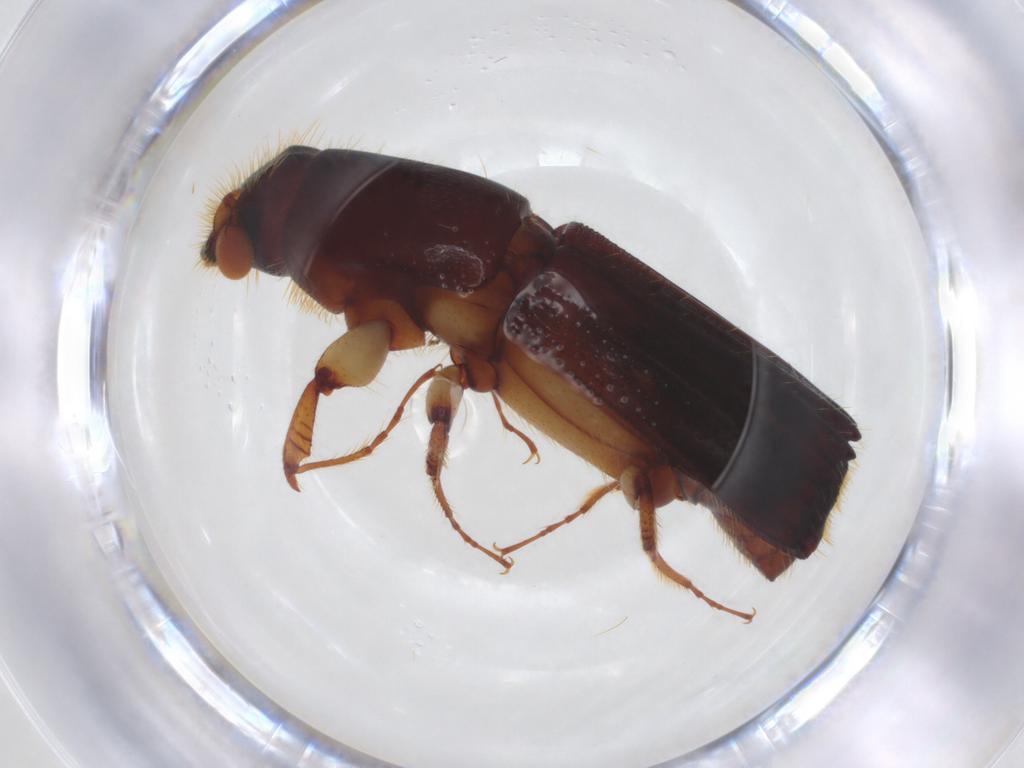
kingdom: Animalia
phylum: Arthropoda
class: Insecta
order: Coleoptera
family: Curculionidae
